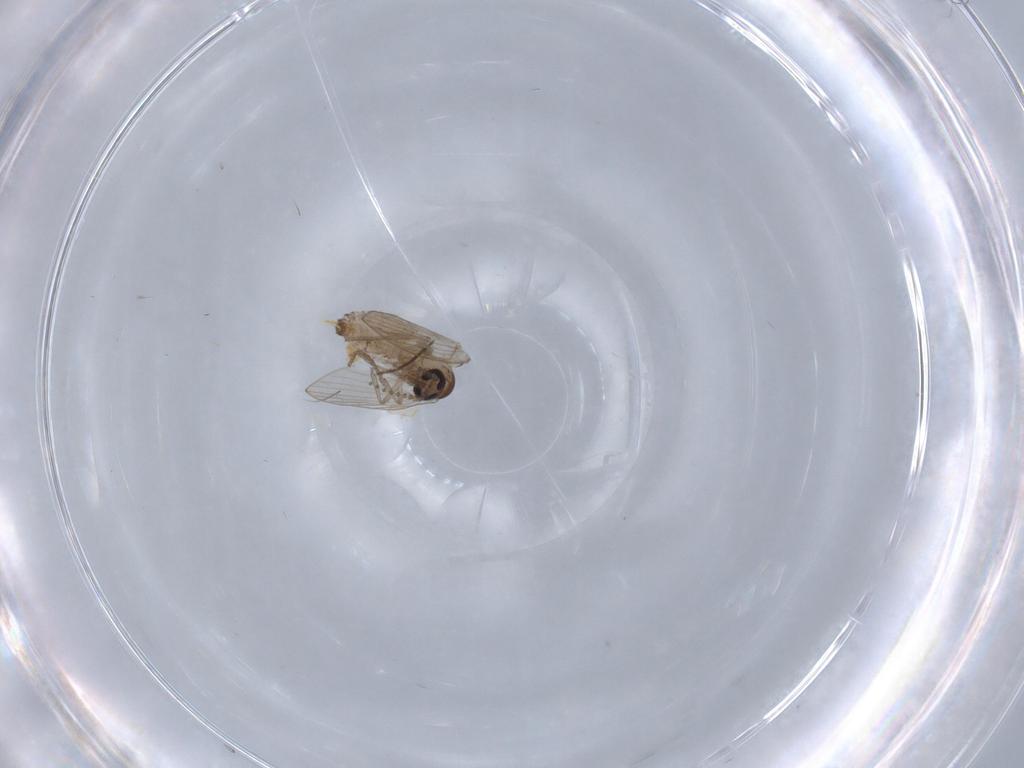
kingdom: Animalia
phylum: Arthropoda
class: Insecta
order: Diptera
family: Psychodidae
